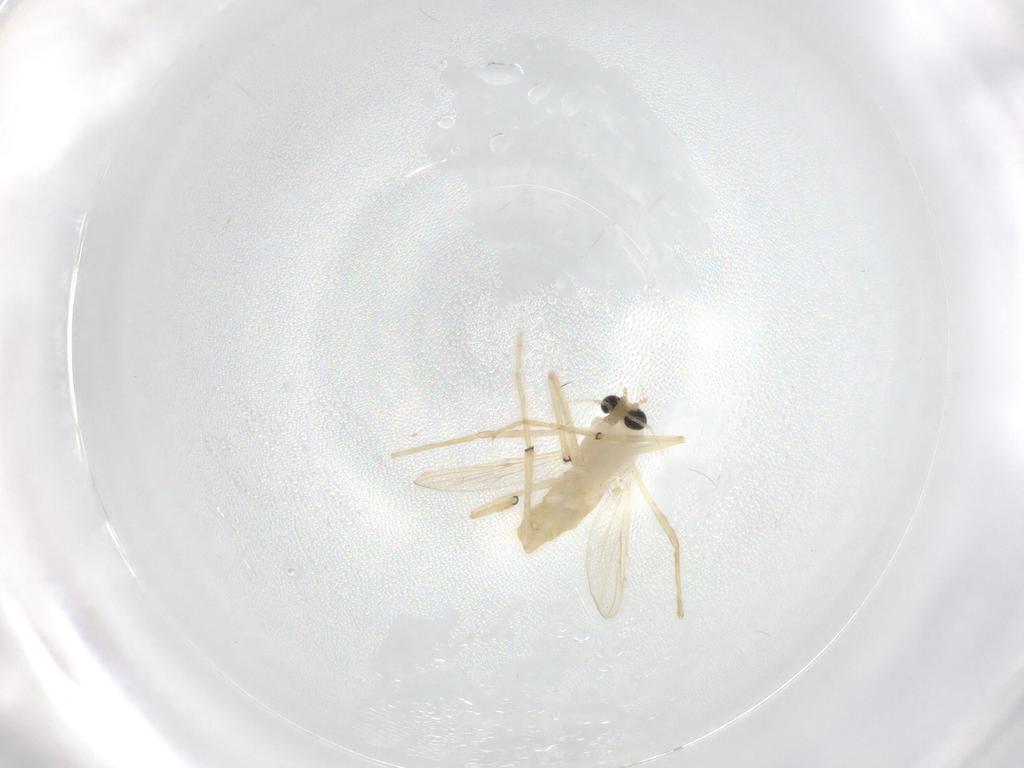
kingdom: Animalia
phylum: Arthropoda
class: Insecta
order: Diptera
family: Chironomidae
